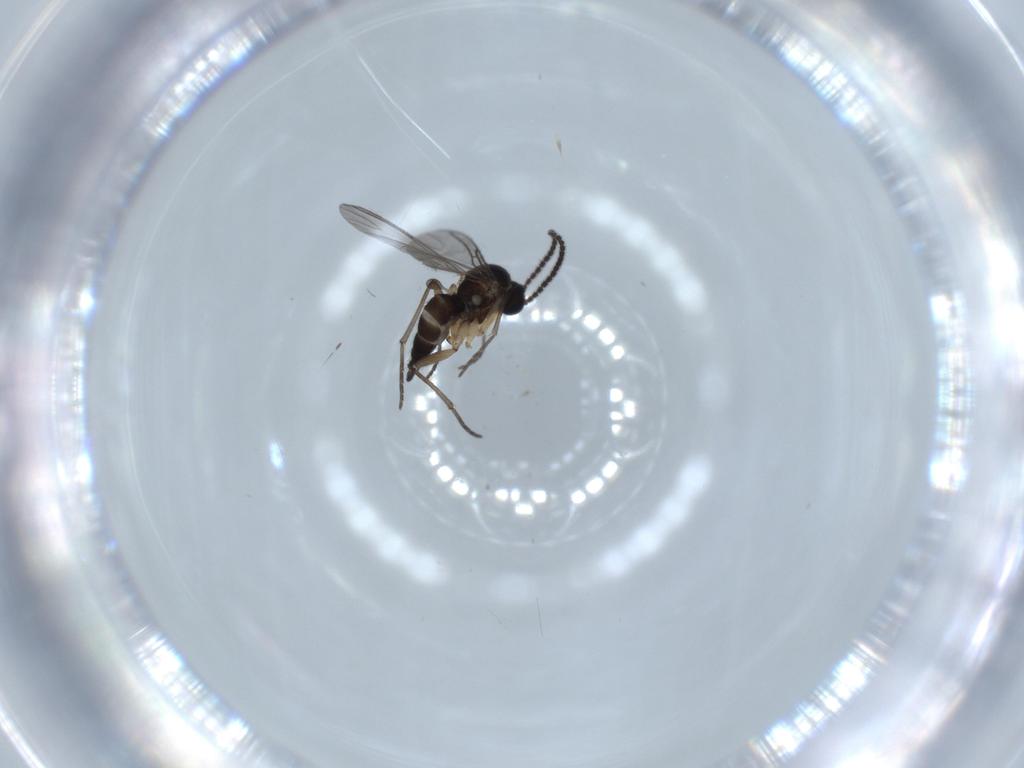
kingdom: Animalia
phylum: Arthropoda
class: Insecta
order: Diptera
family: Sciaridae
